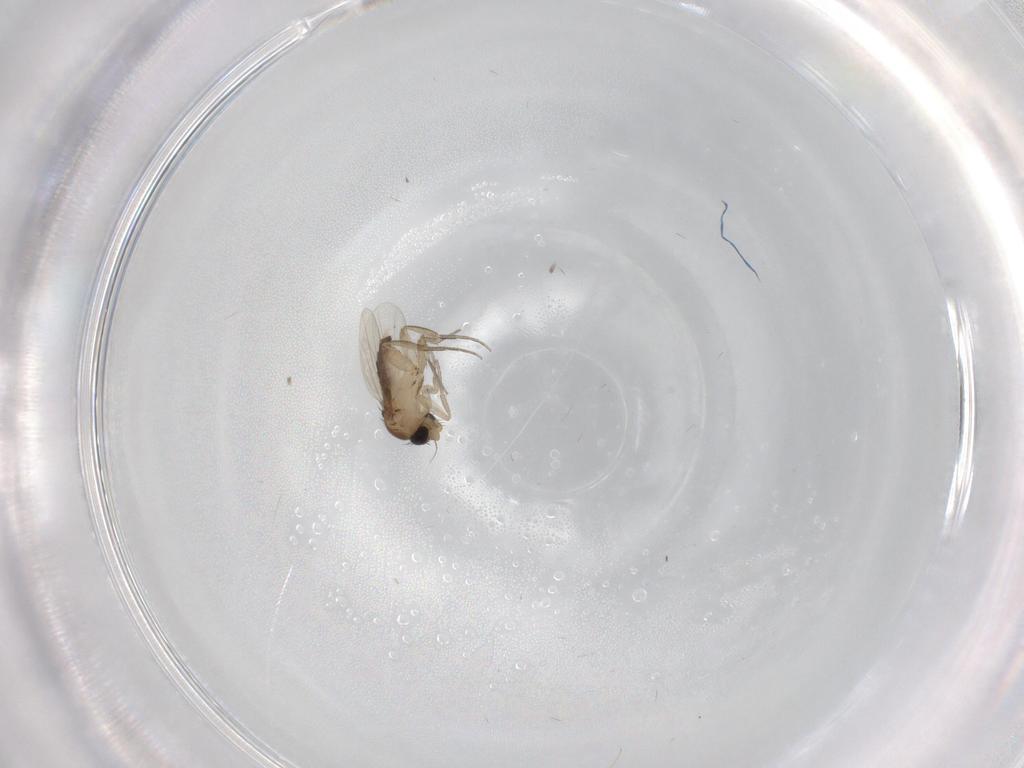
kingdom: Animalia
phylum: Arthropoda
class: Insecta
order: Diptera
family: Phoridae
